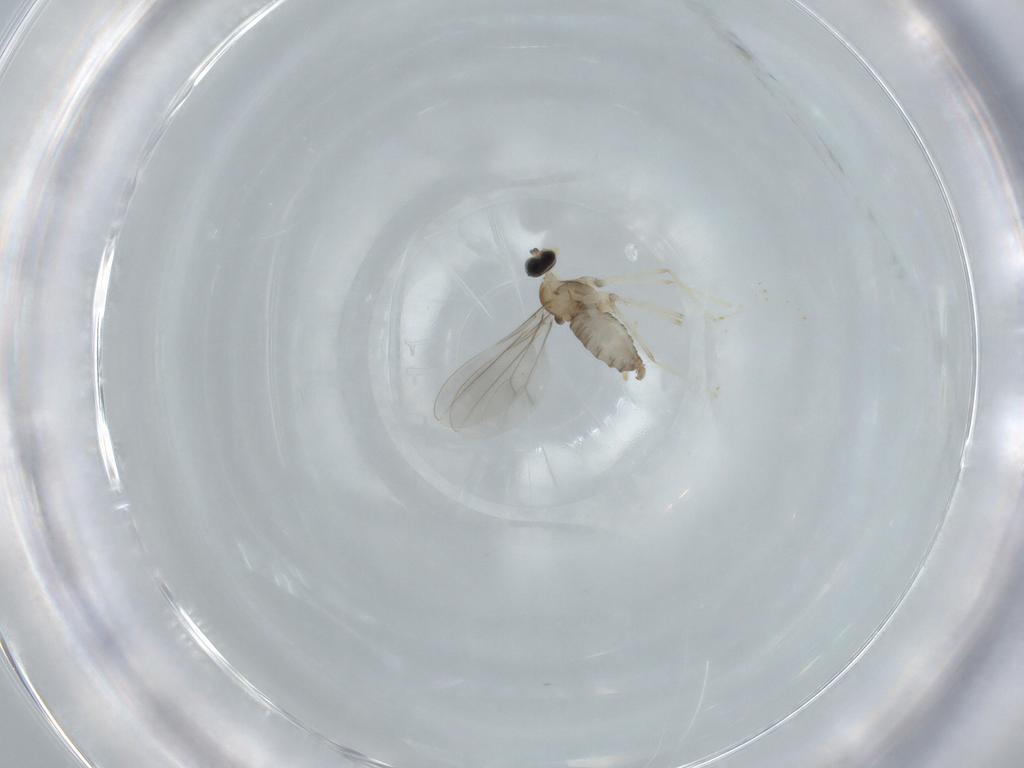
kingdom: Animalia
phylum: Arthropoda
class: Insecta
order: Diptera
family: Cecidomyiidae
